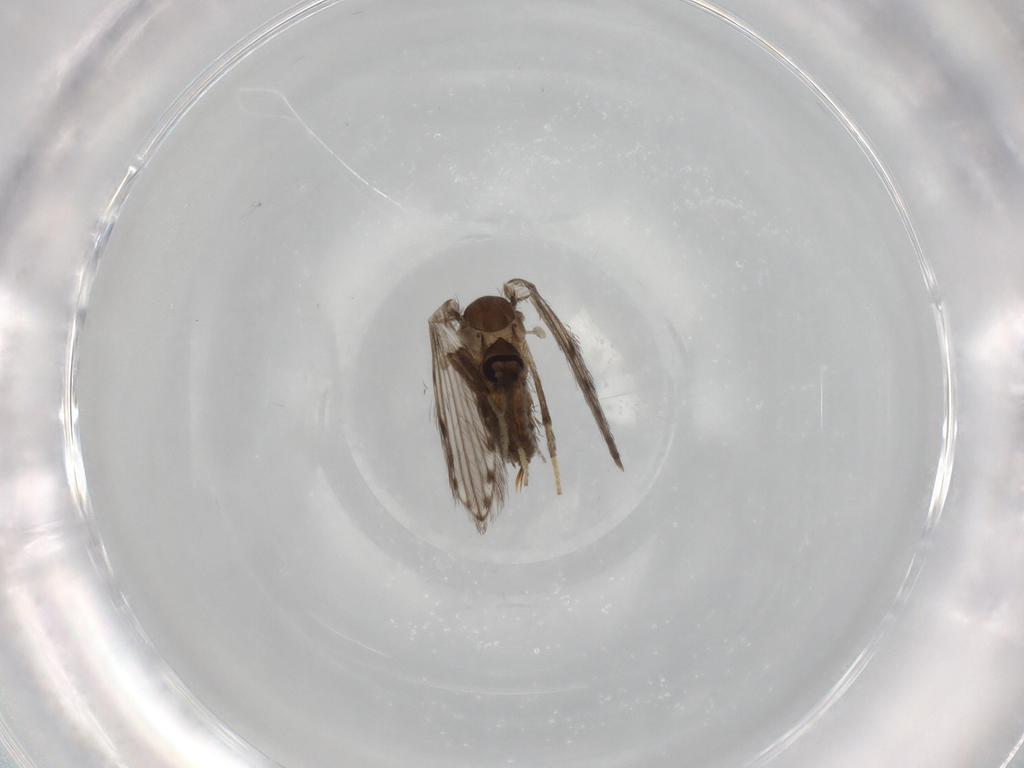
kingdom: Animalia
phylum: Arthropoda
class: Insecta
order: Diptera
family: Psychodidae
